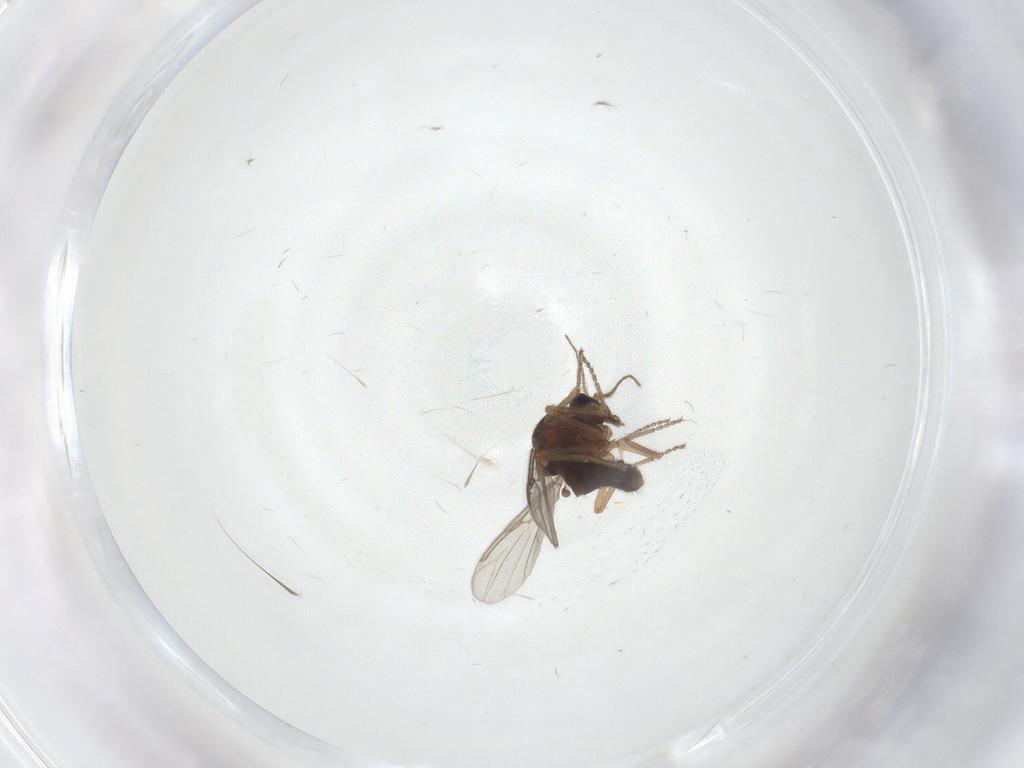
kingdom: Animalia
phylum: Arthropoda
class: Insecta
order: Diptera
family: Ceratopogonidae
